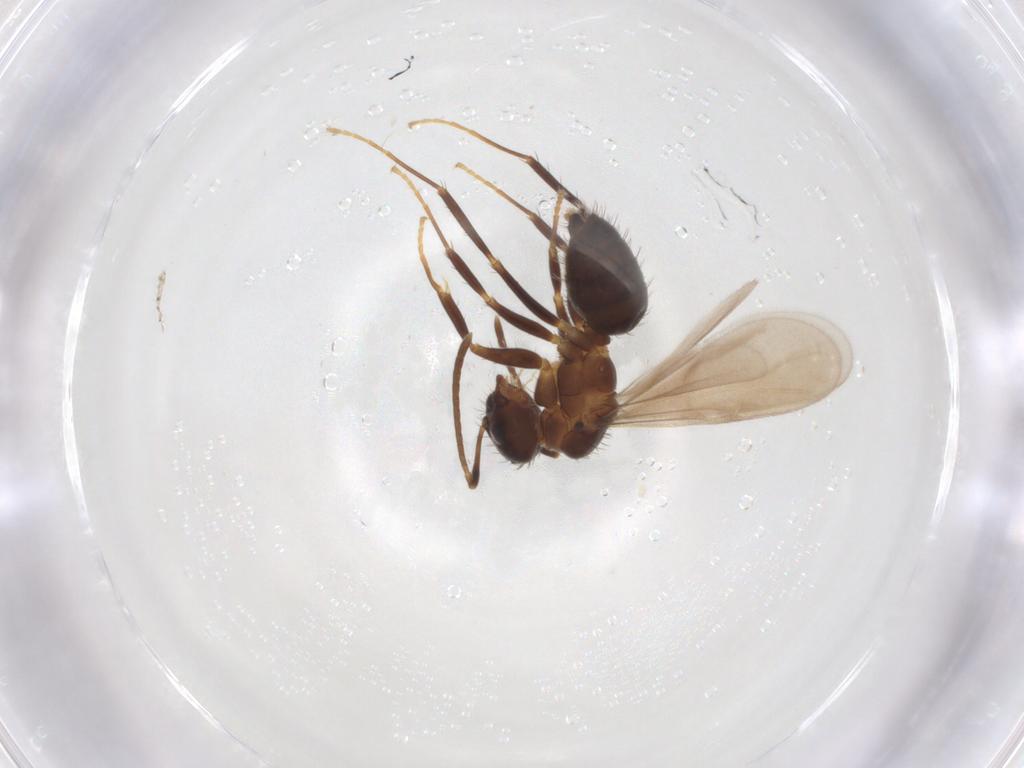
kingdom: Animalia
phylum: Arthropoda
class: Insecta
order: Hymenoptera
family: Formicidae
